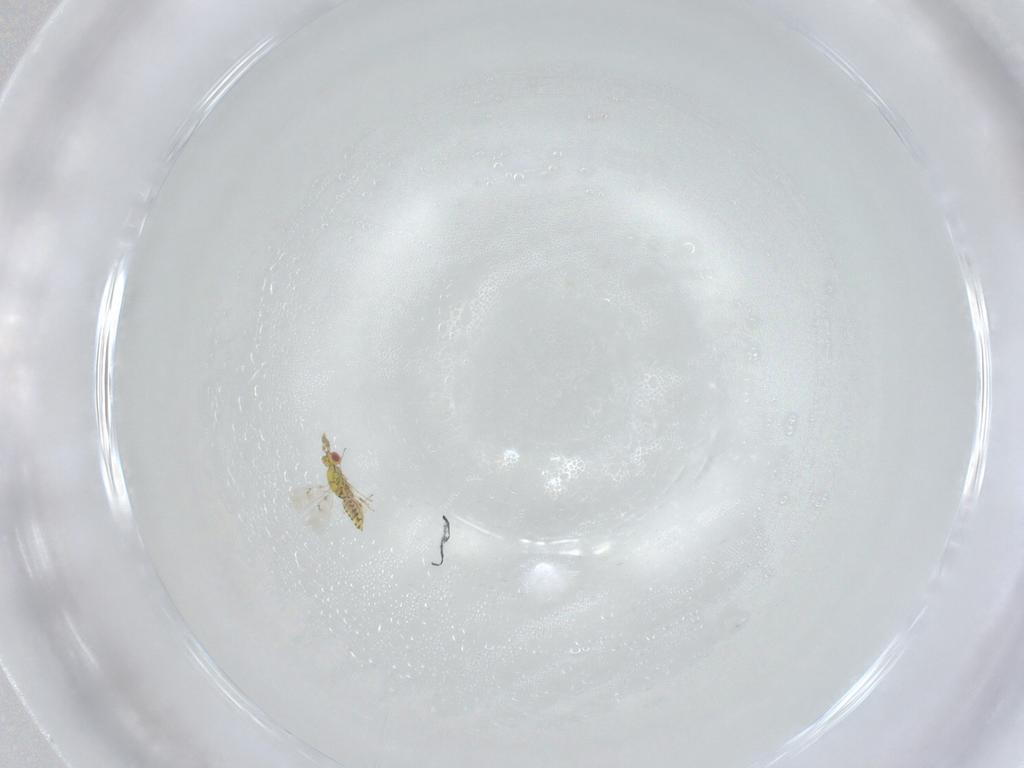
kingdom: Animalia
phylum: Arthropoda
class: Insecta
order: Hymenoptera
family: Eulophidae
